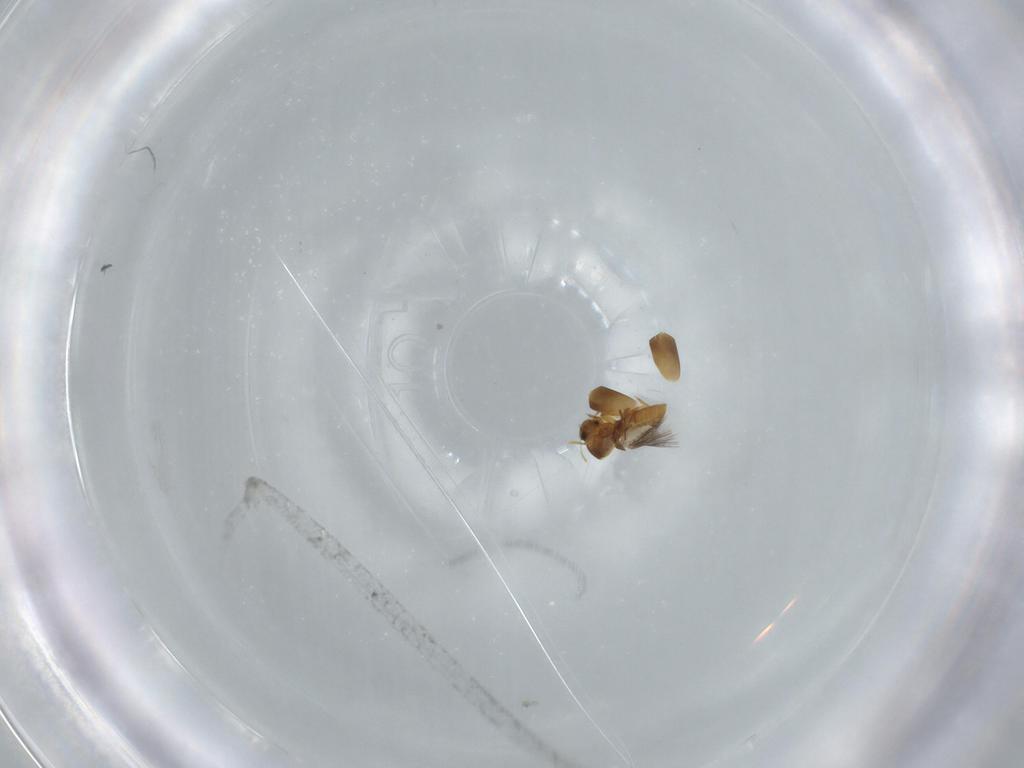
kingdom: Animalia
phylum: Arthropoda
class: Insecta
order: Coleoptera
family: Ptiliidae
